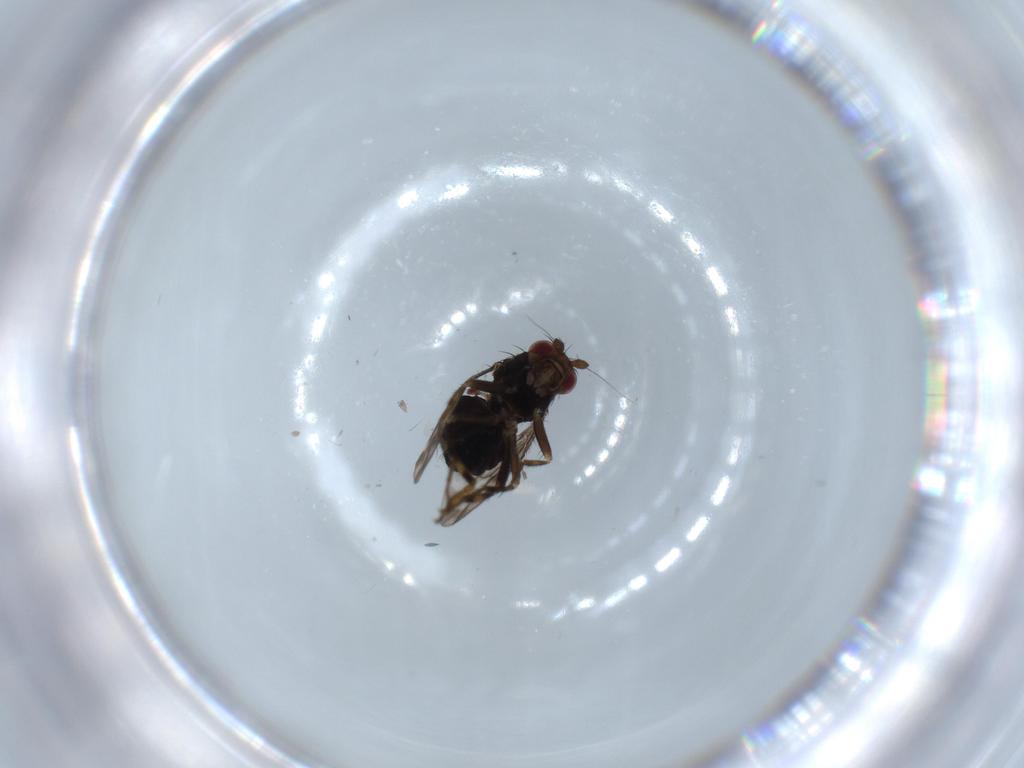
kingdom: Animalia
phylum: Arthropoda
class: Insecta
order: Diptera
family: Sphaeroceridae
